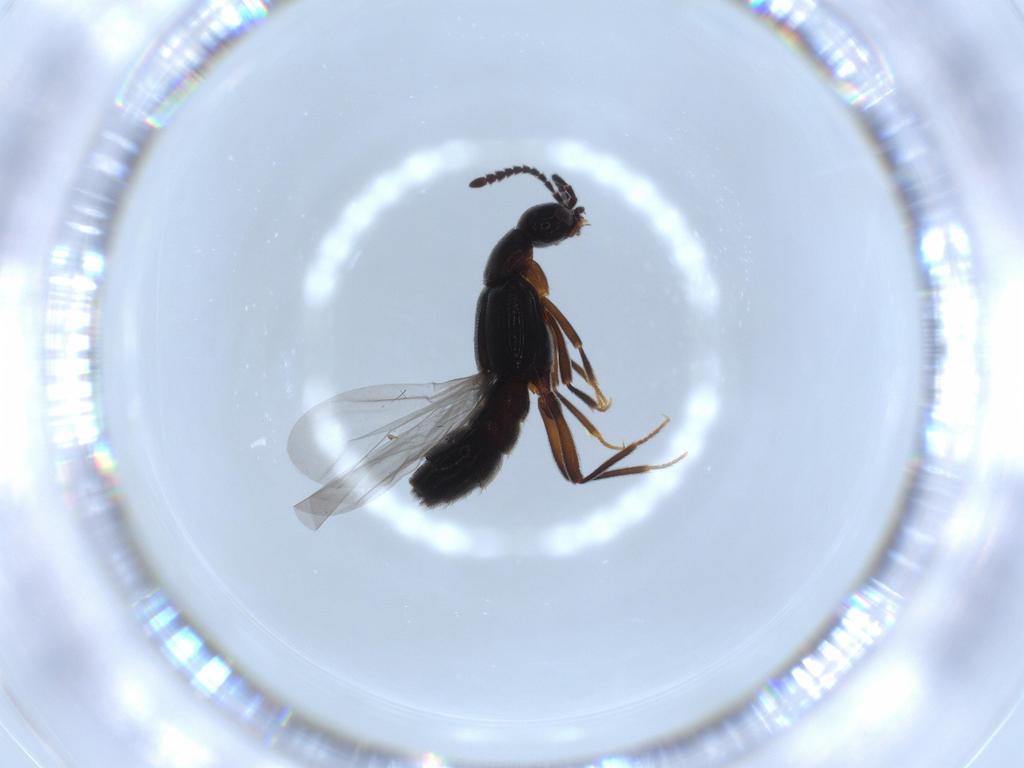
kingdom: Animalia
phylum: Arthropoda
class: Insecta
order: Coleoptera
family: Staphylinidae
